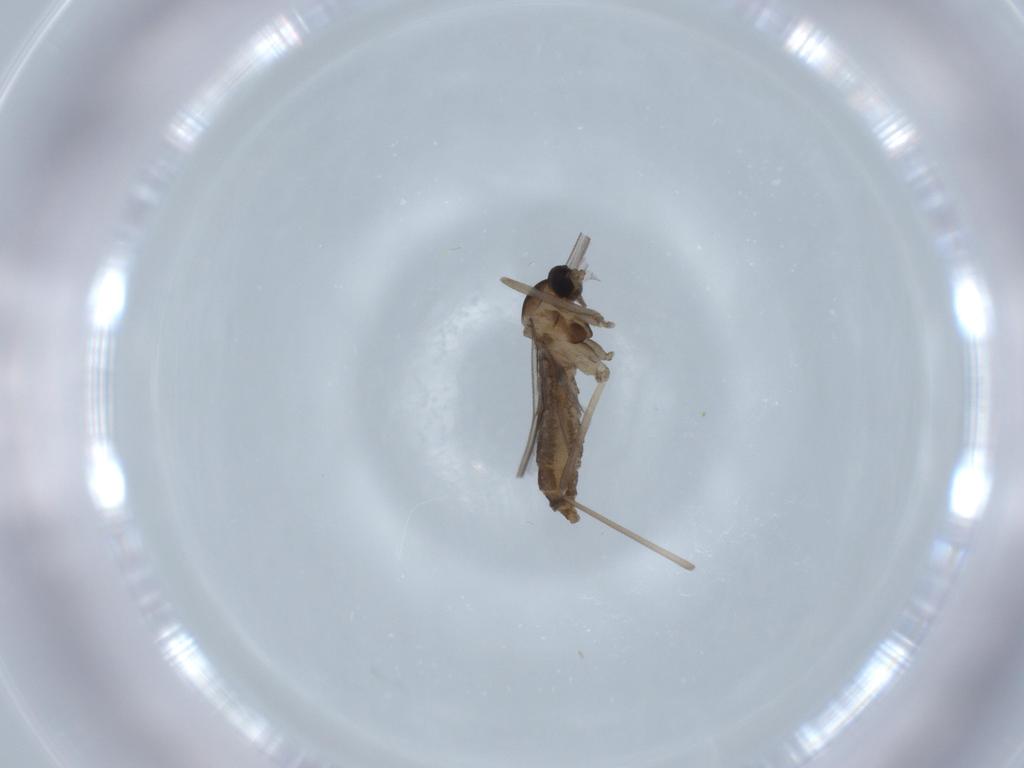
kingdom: Animalia
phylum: Arthropoda
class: Insecta
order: Diptera
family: Cecidomyiidae
